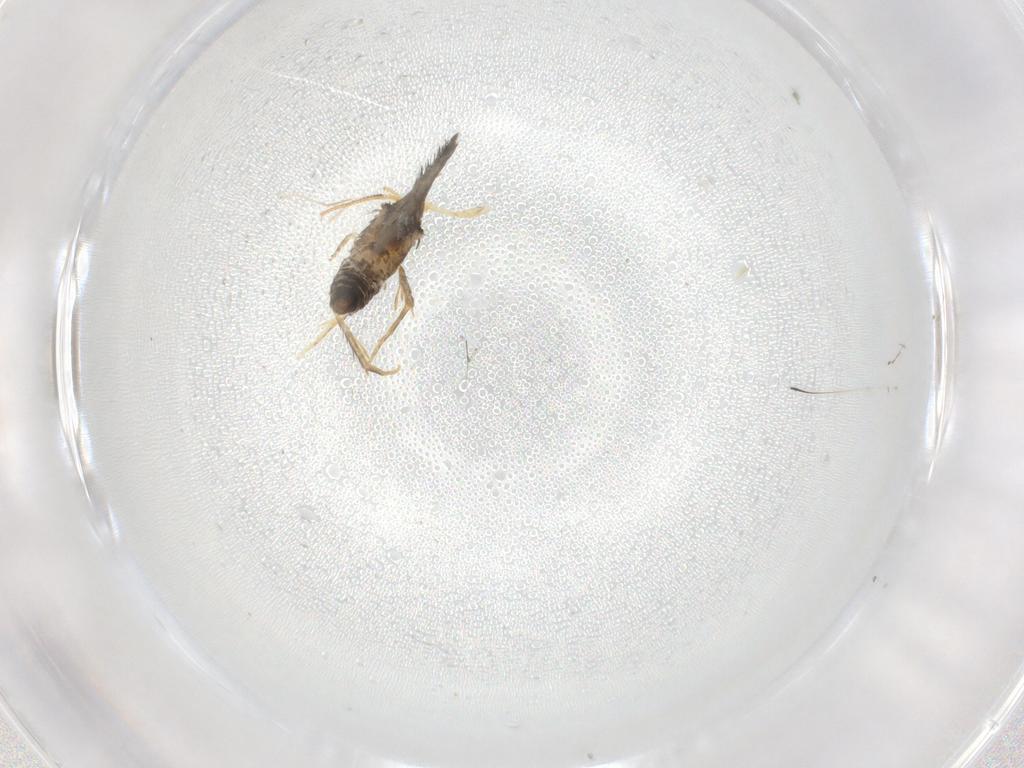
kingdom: Animalia
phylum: Arthropoda
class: Insecta
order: Lepidoptera
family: Nepticulidae
